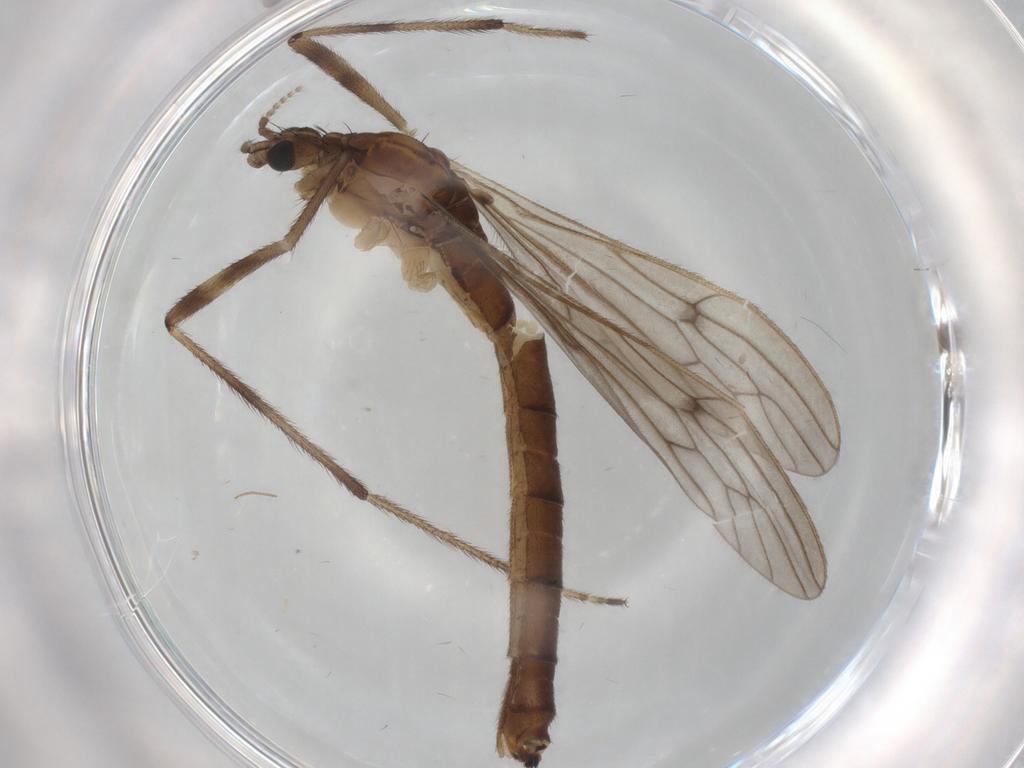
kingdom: Animalia
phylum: Arthropoda
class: Insecta
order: Diptera
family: Limoniidae
